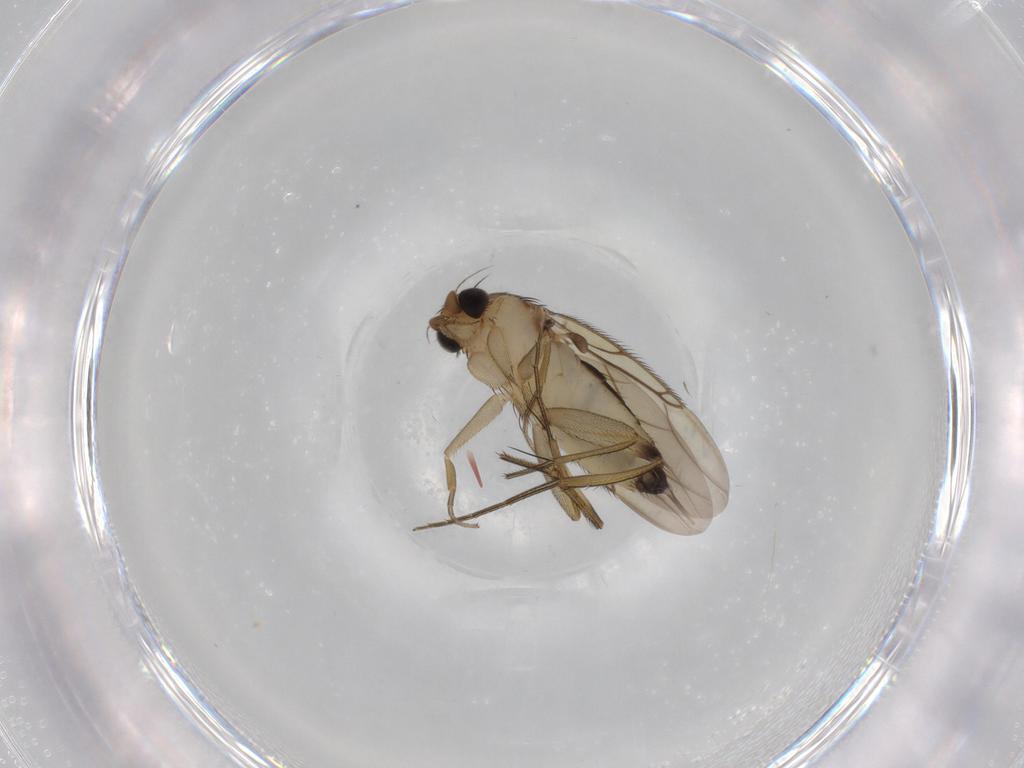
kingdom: Animalia
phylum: Arthropoda
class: Insecta
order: Diptera
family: Phoridae
